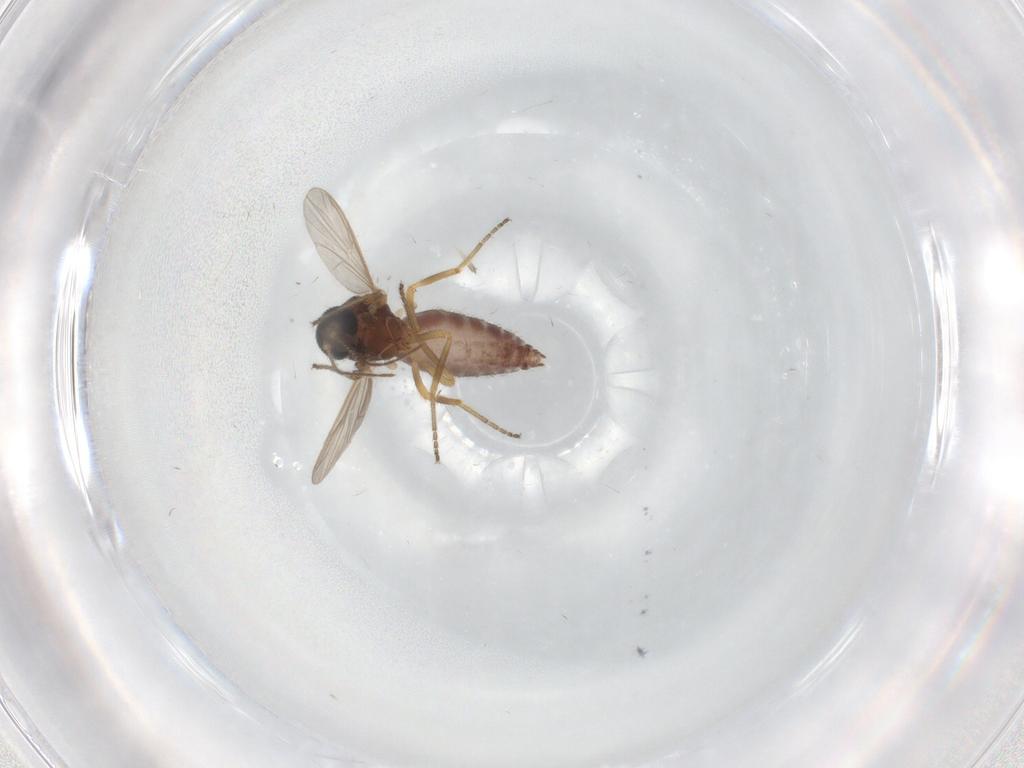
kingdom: Animalia
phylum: Arthropoda
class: Insecta
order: Diptera
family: Chironomidae
